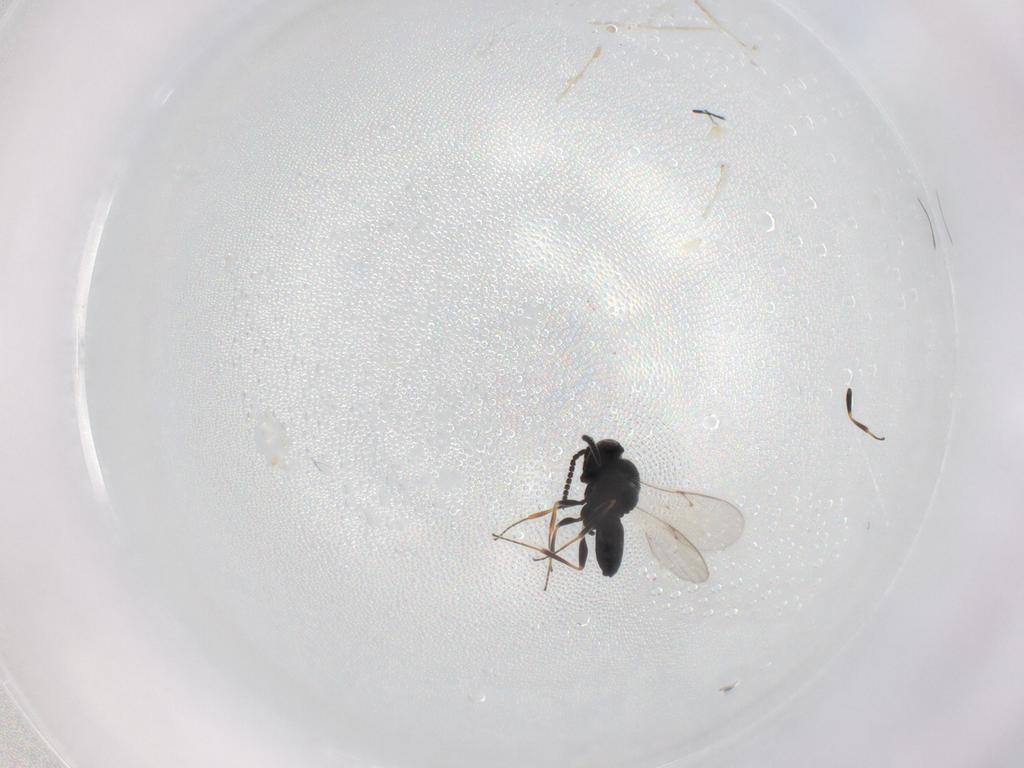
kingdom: Animalia
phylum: Arthropoda
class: Insecta
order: Hymenoptera
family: Scelionidae
